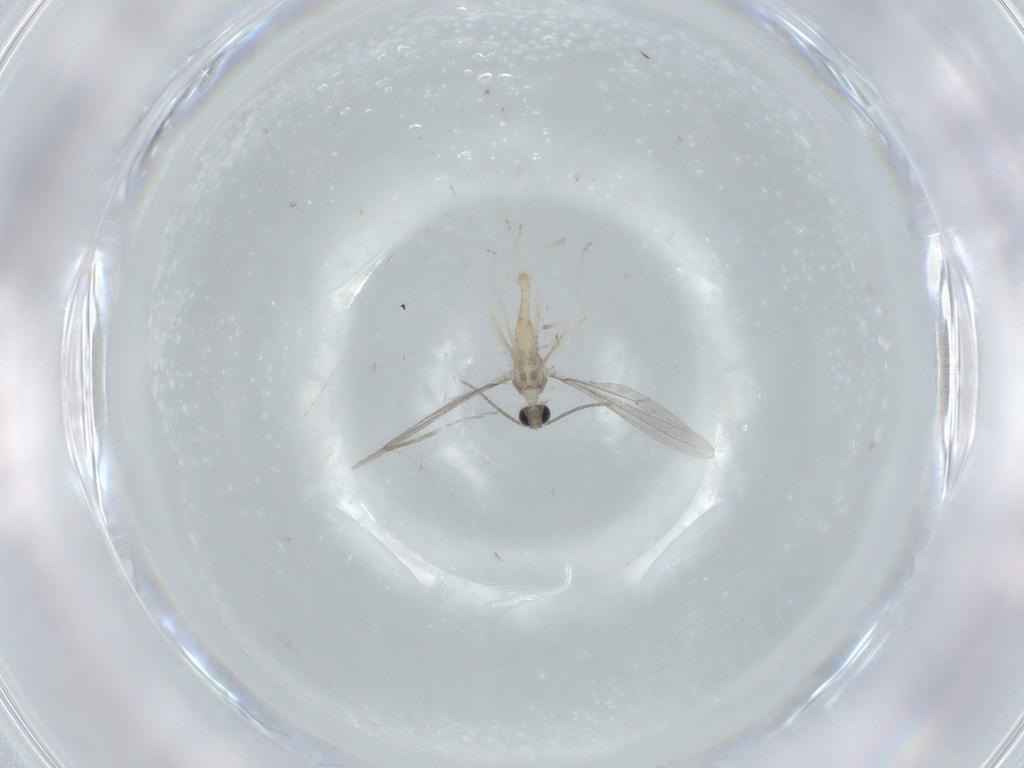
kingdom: Animalia
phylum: Arthropoda
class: Insecta
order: Diptera
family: Cecidomyiidae
